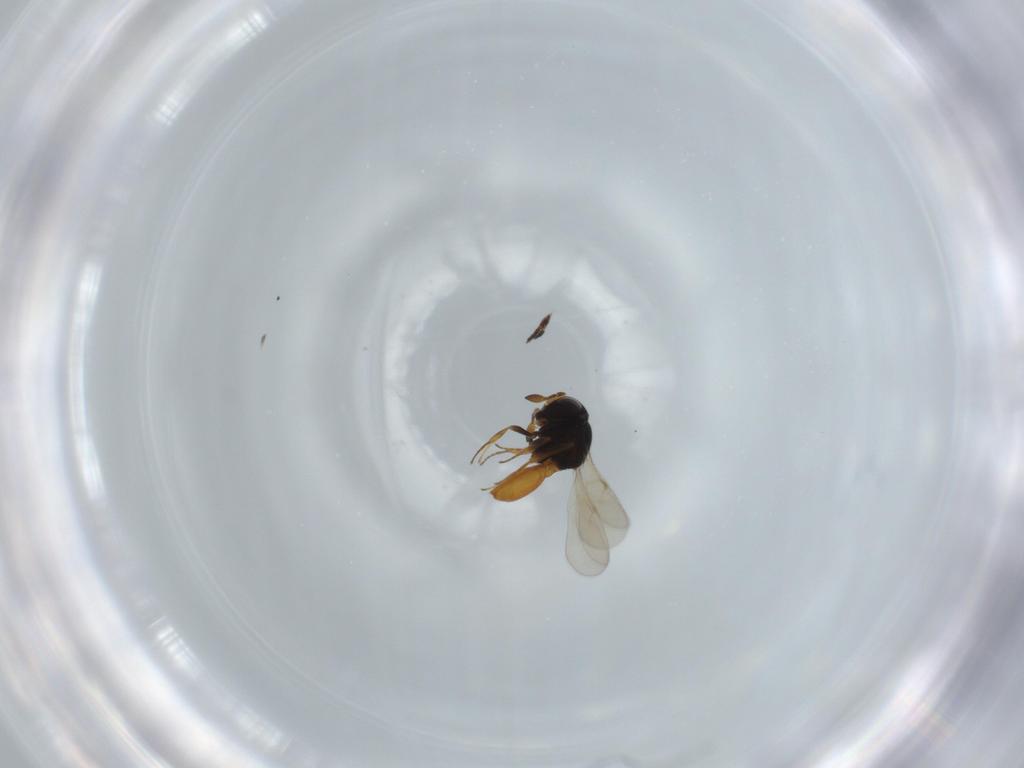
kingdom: Animalia
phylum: Arthropoda
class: Insecta
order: Hymenoptera
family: Scelionidae
